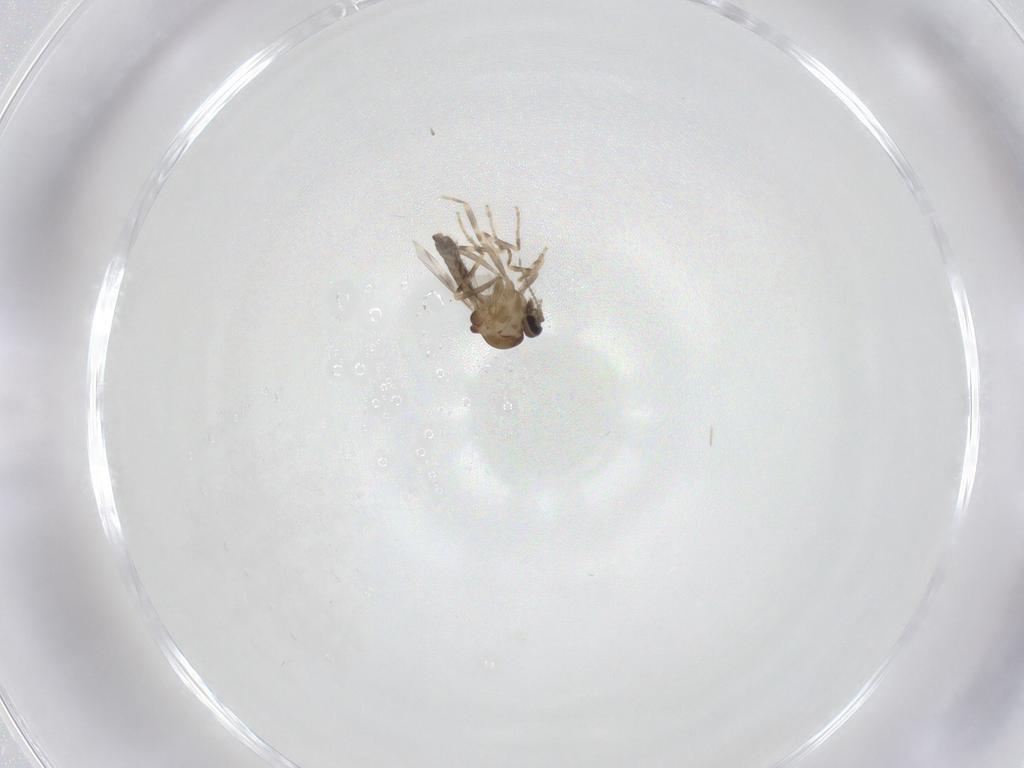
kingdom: Animalia
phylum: Arthropoda
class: Insecta
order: Diptera
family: Ceratopogonidae
